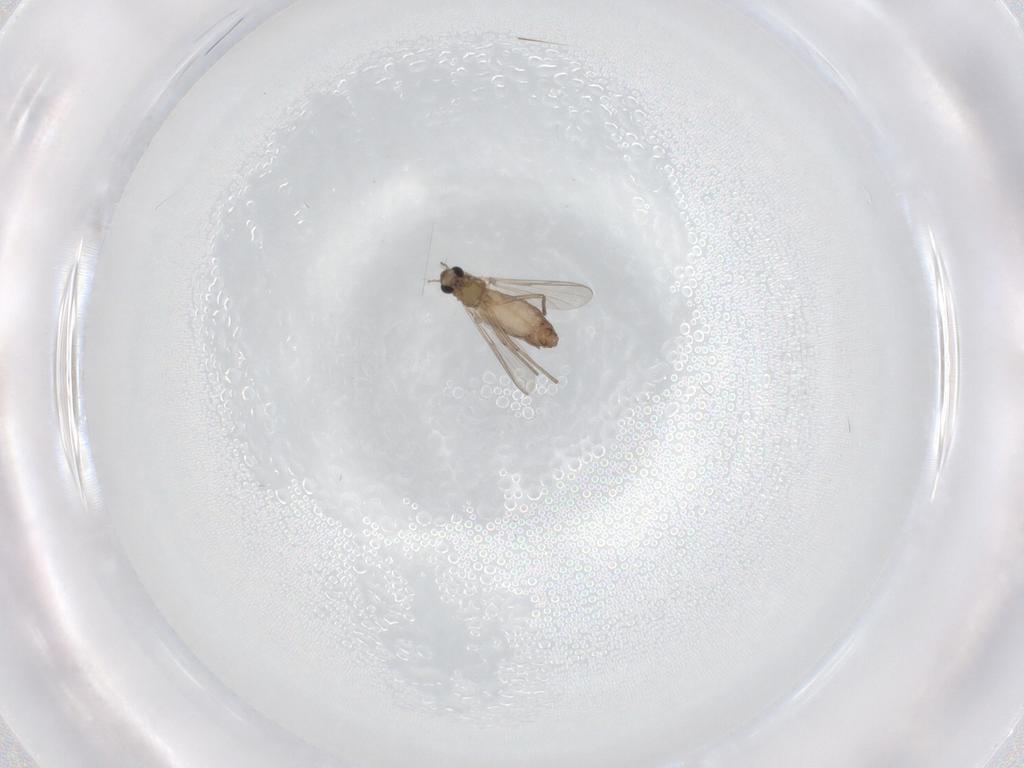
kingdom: Animalia
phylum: Arthropoda
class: Insecta
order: Diptera
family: Chironomidae
